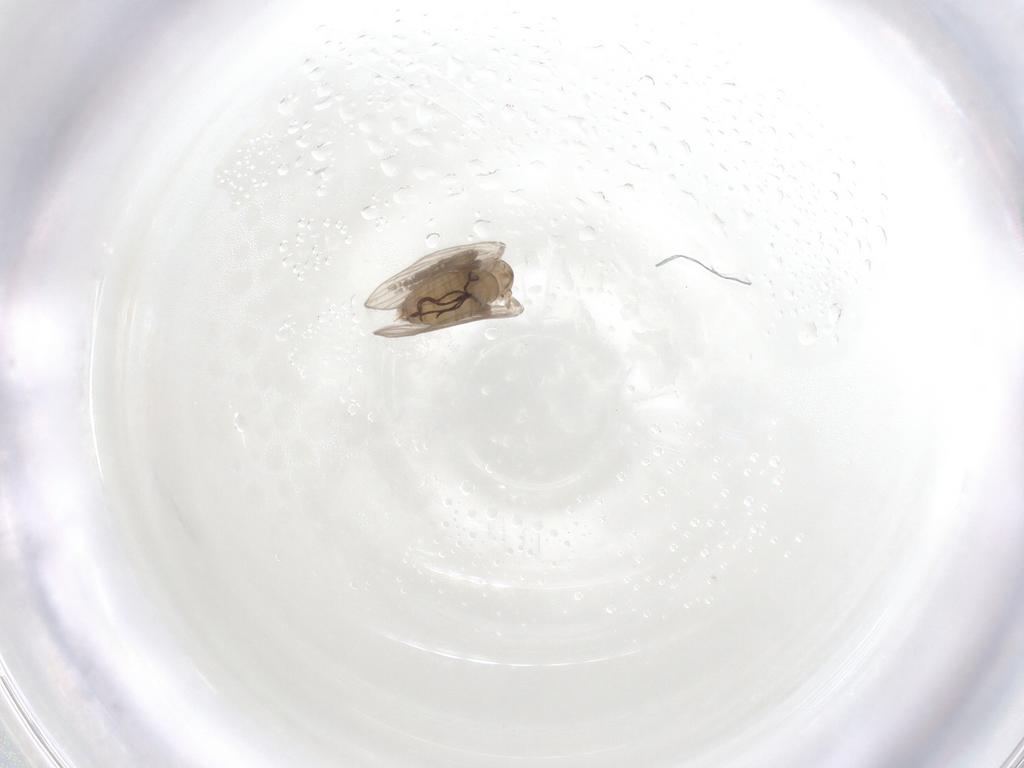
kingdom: Animalia
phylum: Arthropoda
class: Insecta
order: Diptera
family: Psychodidae
